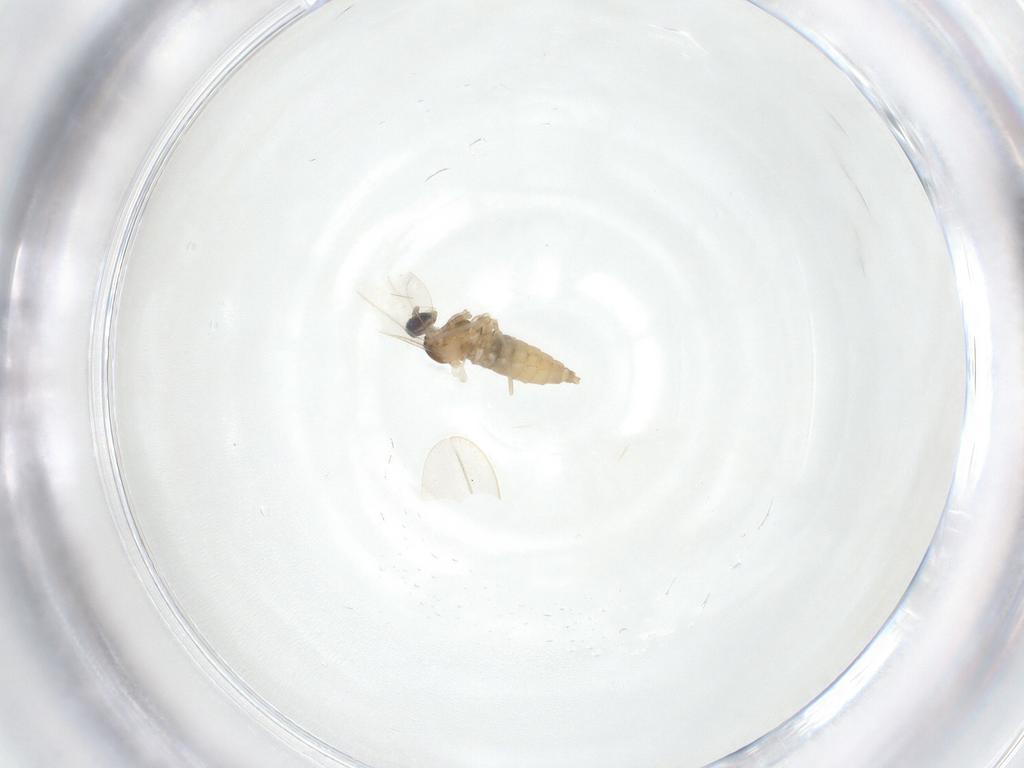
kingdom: Animalia
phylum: Arthropoda
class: Insecta
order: Diptera
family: Cecidomyiidae
